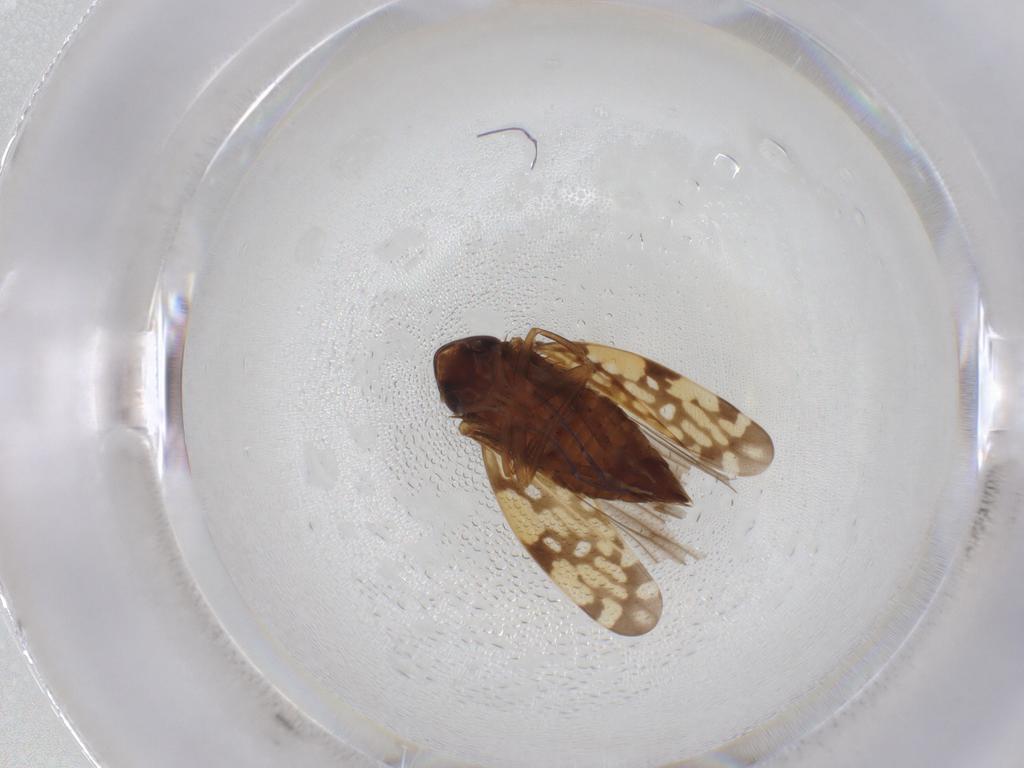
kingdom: Animalia
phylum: Arthropoda
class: Insecta
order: Hemiptera
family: Cicadellidae
